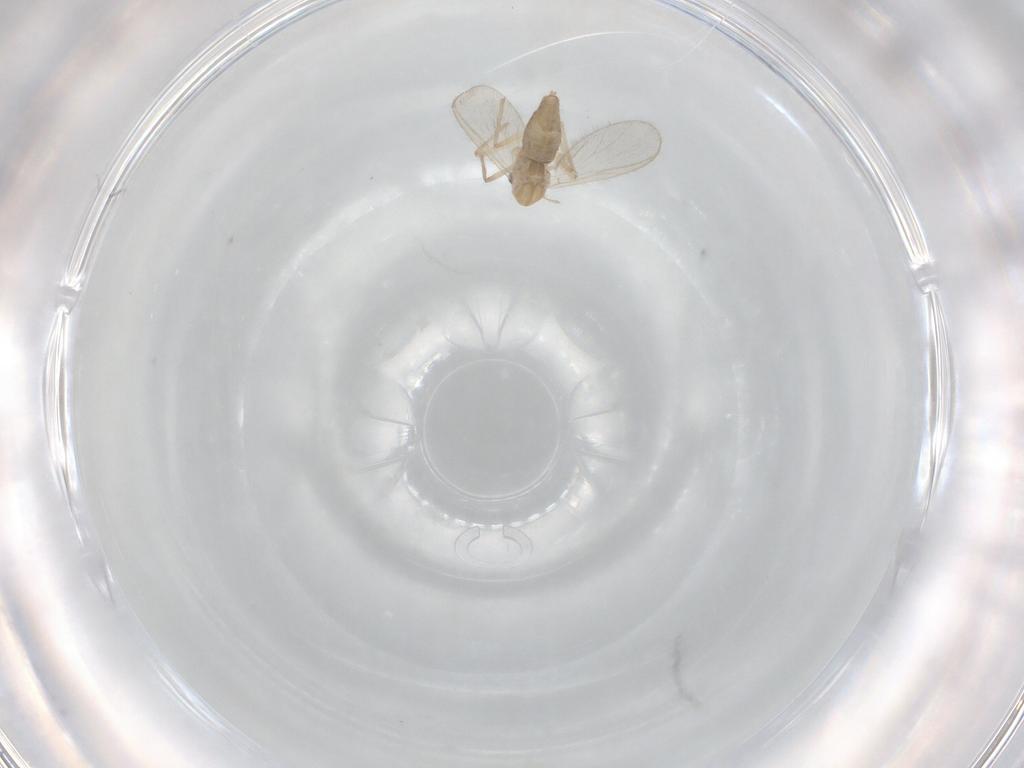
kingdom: Animalia
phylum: Arthropoda
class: Insecta
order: Diptera
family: Chironomidae
